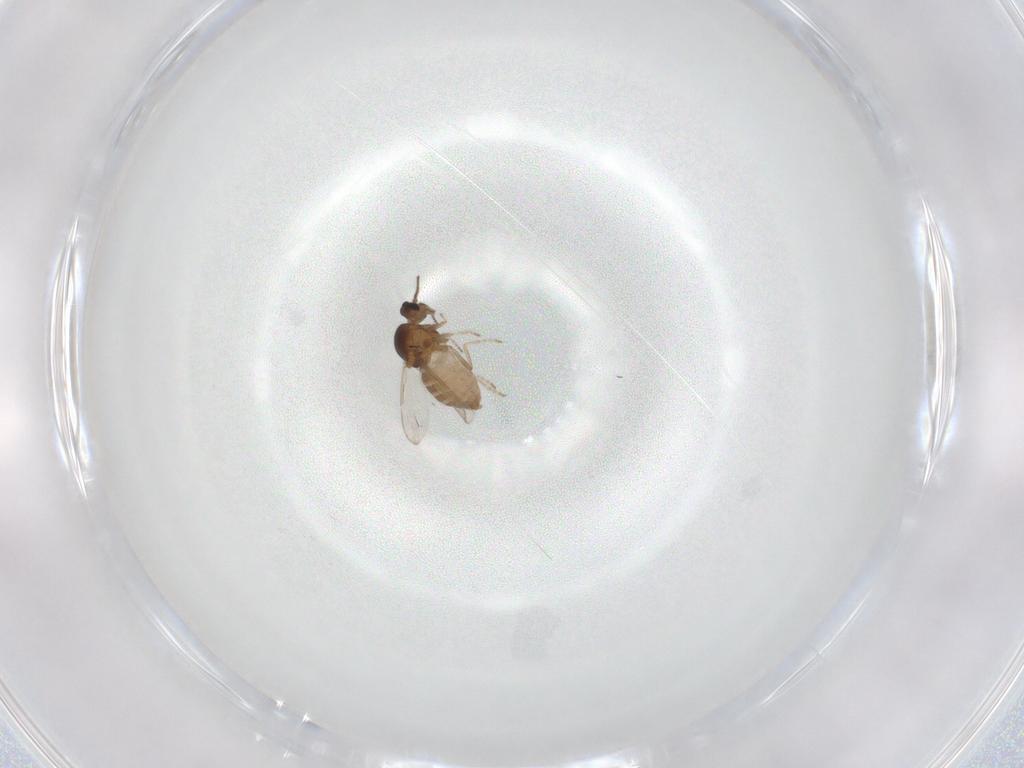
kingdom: Animalia
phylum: Arthropoda
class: Insecta
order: Diptera
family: Ceratopogonidae
